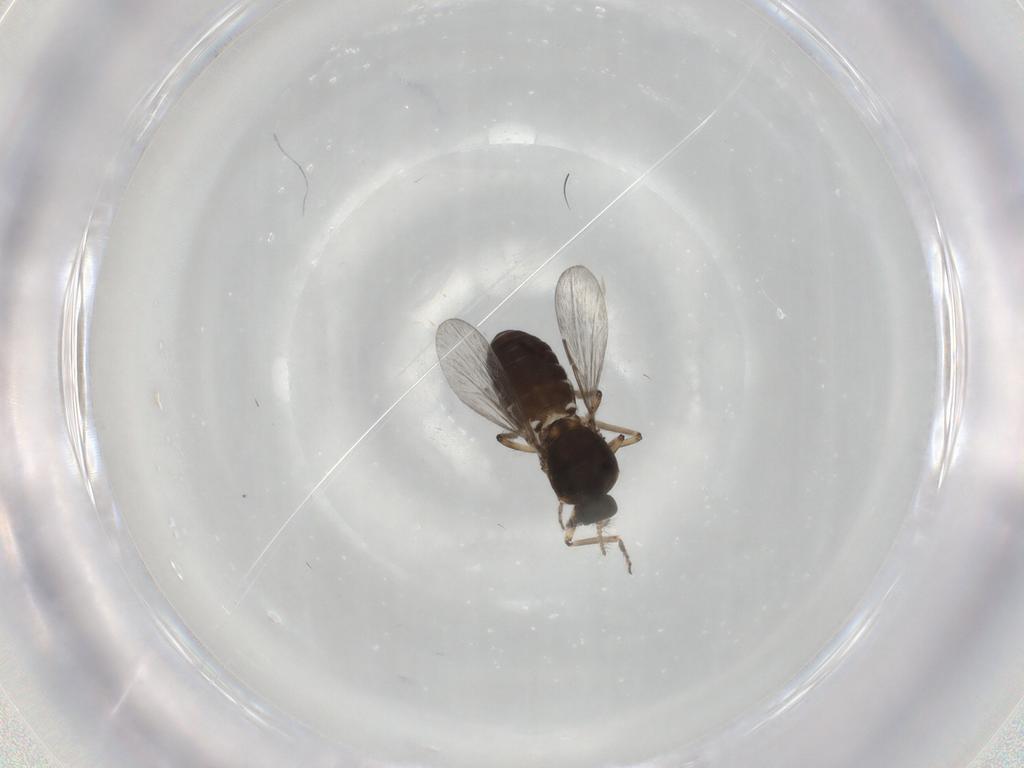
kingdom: Animalia
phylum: Arthropoda
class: Insecta
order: Diptera
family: Ceratopogonidae
